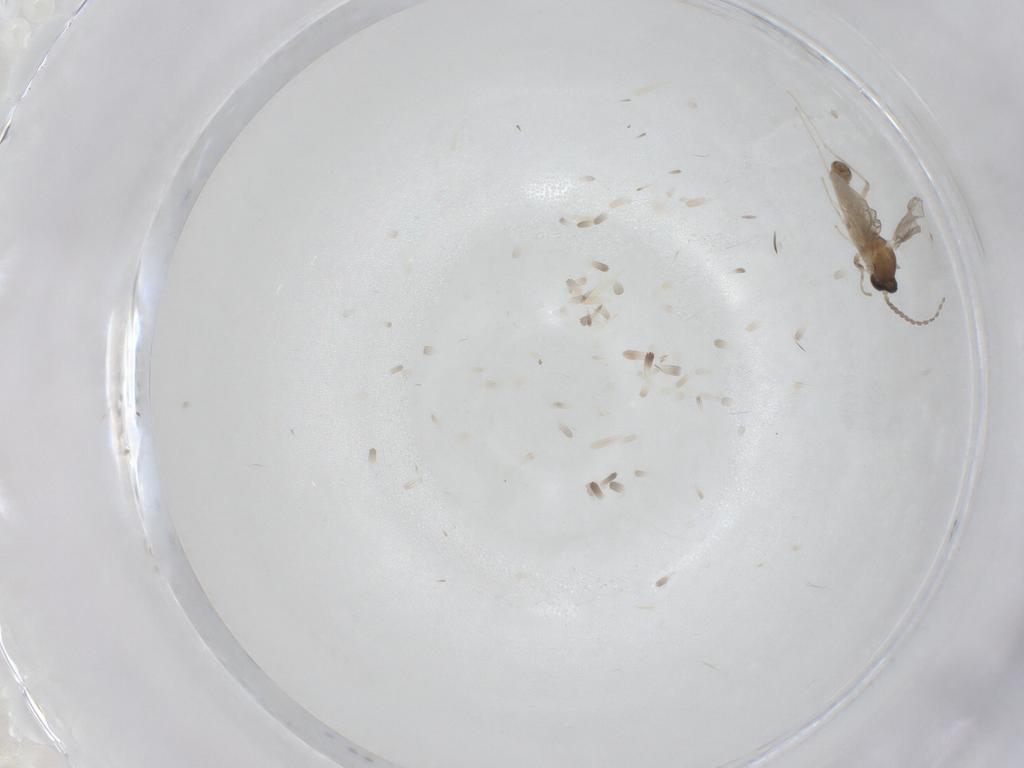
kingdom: Animalia
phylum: Arthropoda
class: Insecta
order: Diptera
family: Cecidomyiidae
